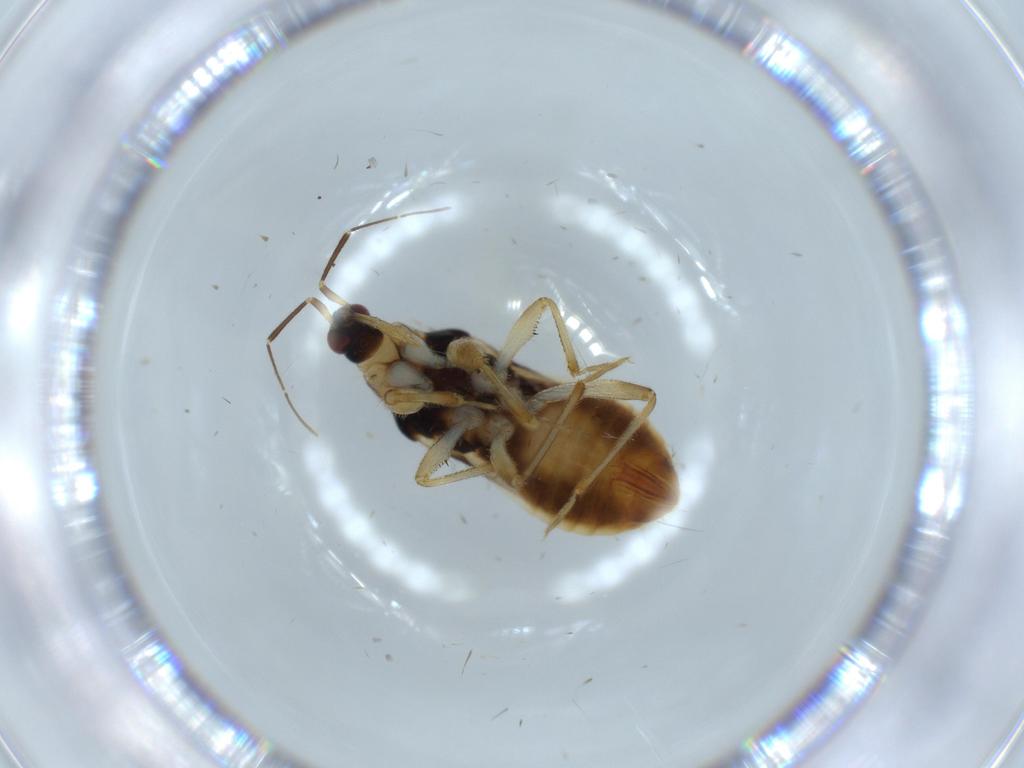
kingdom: Animalia
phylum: Arthropoda
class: Insecta
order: Hemiptera
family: Nabidae
